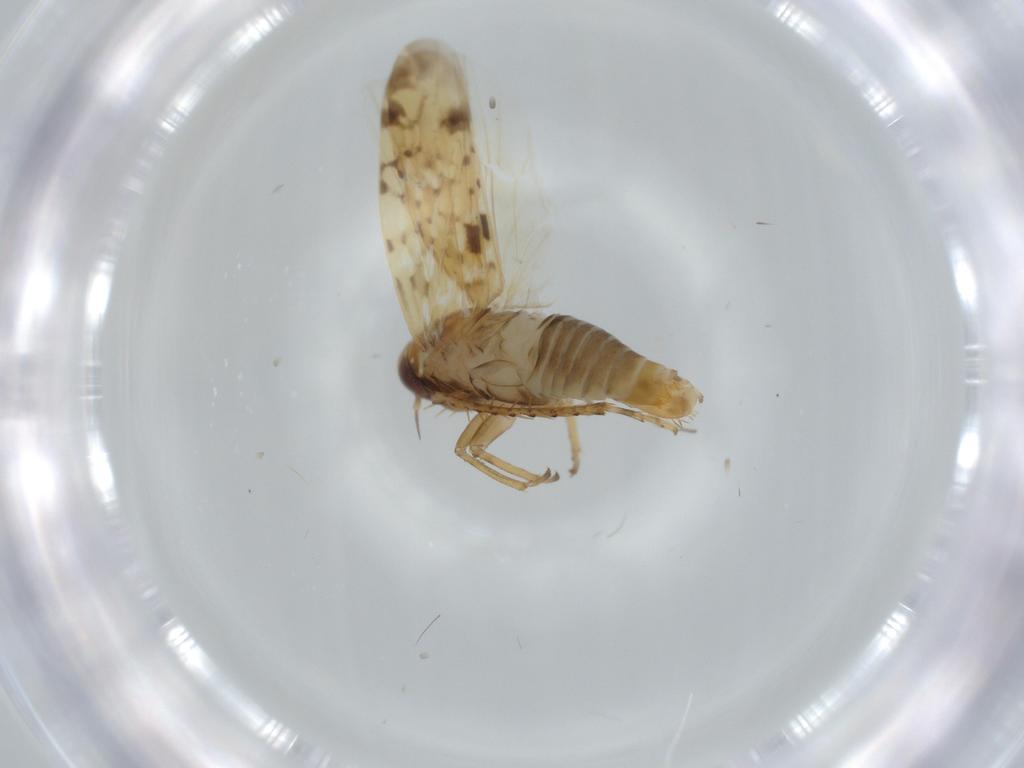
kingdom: Animalia
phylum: Arthropoda
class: Insecta
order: Hemiptera
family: Cicadellidae
